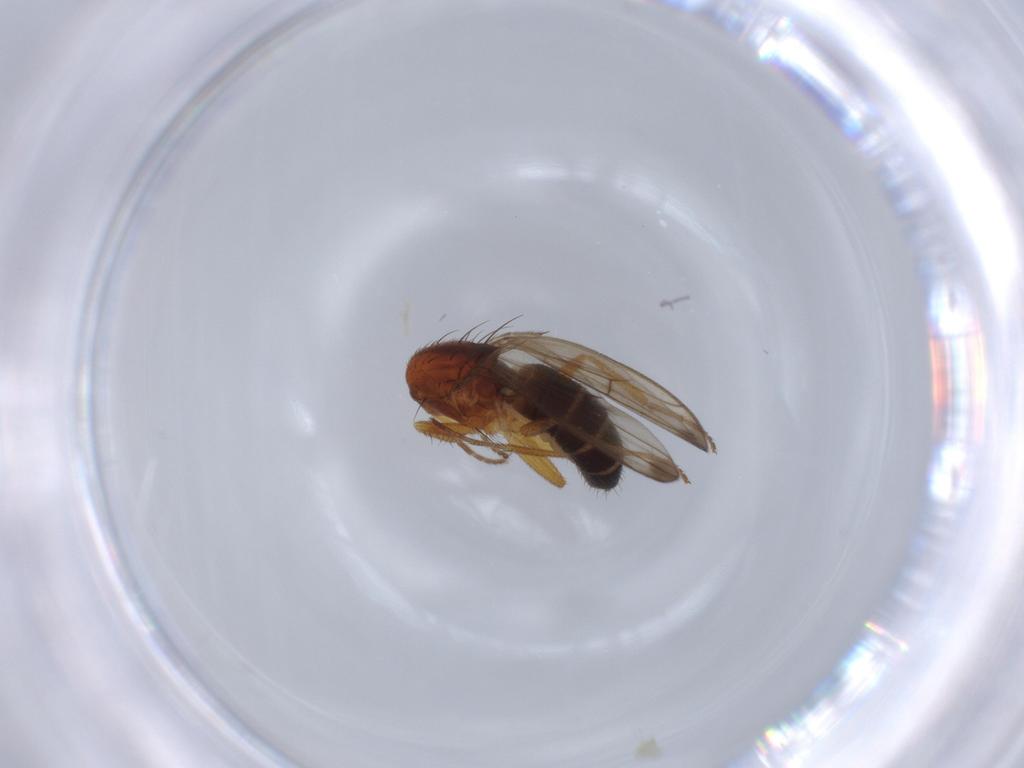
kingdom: Animalia
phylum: Arthropoda
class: Insecta
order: Diptera
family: Drosophilidae
